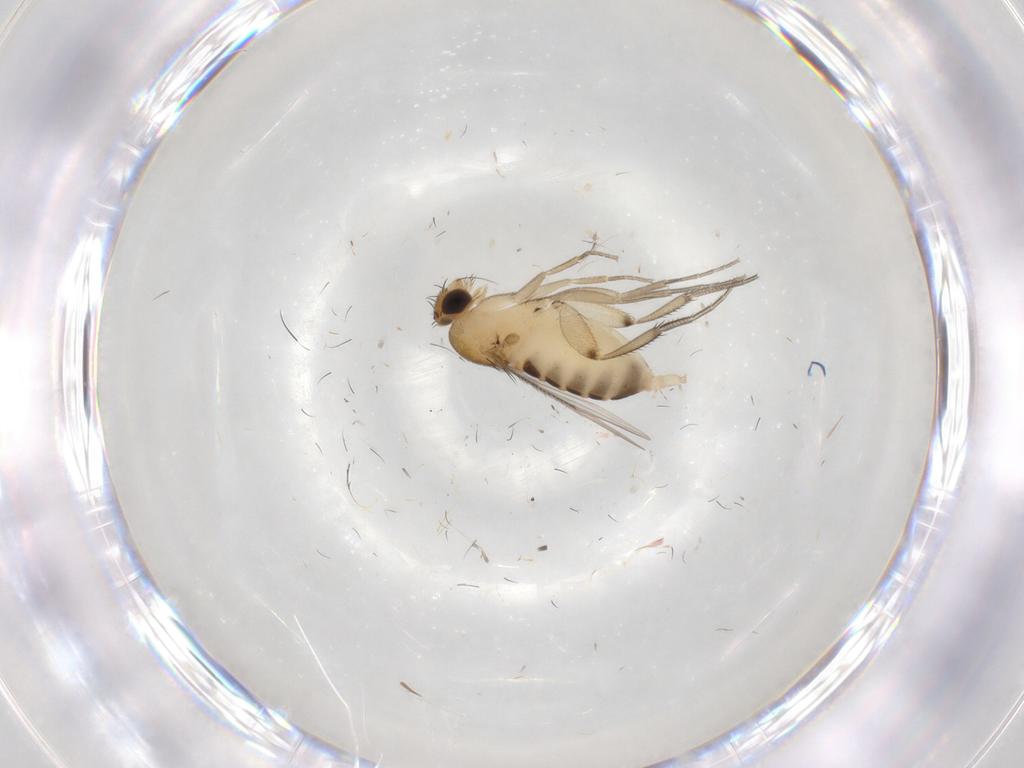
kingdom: Animalia
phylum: Arthropoda
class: Insecta
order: Diptera
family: Phoridae
